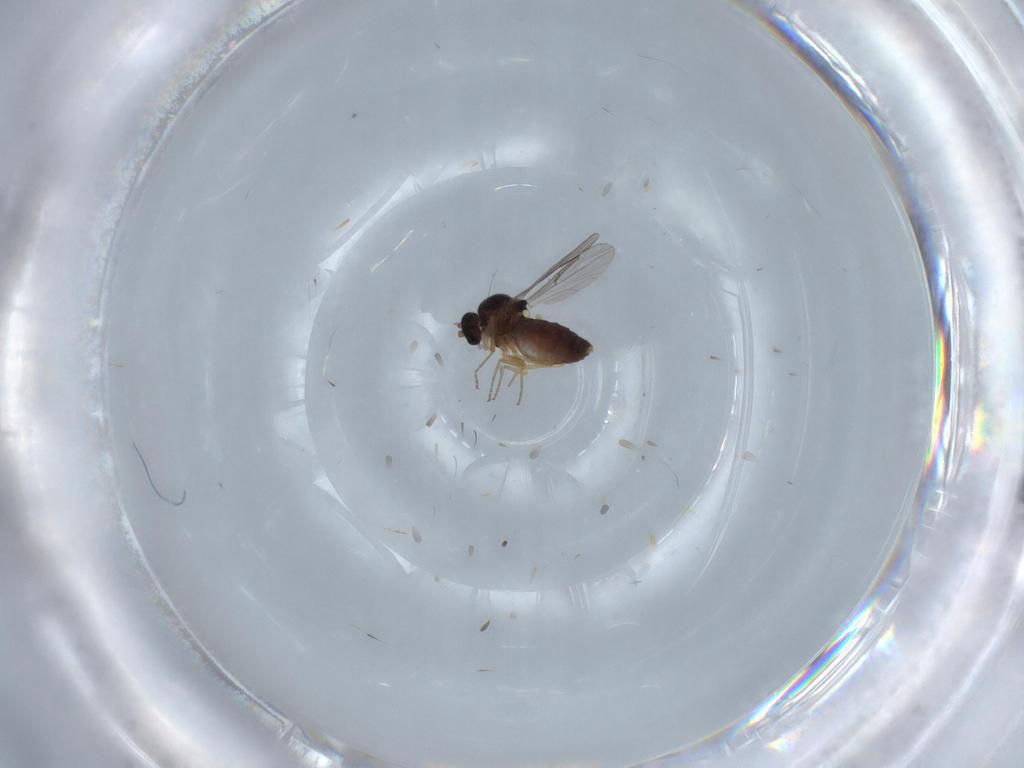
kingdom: Animalia
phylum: Arthropoda
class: Insecta
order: Diptera
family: Ceratopogonidae
